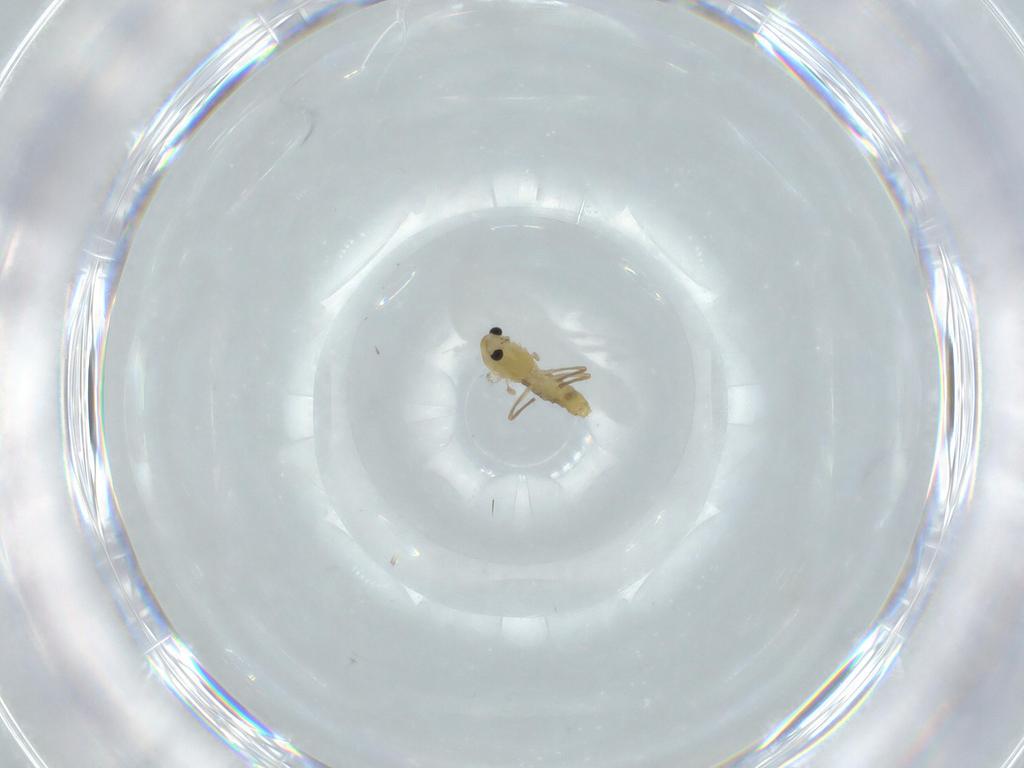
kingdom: Animalia
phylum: Arthropoda
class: Insecta
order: Diptera
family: Chironomidae
